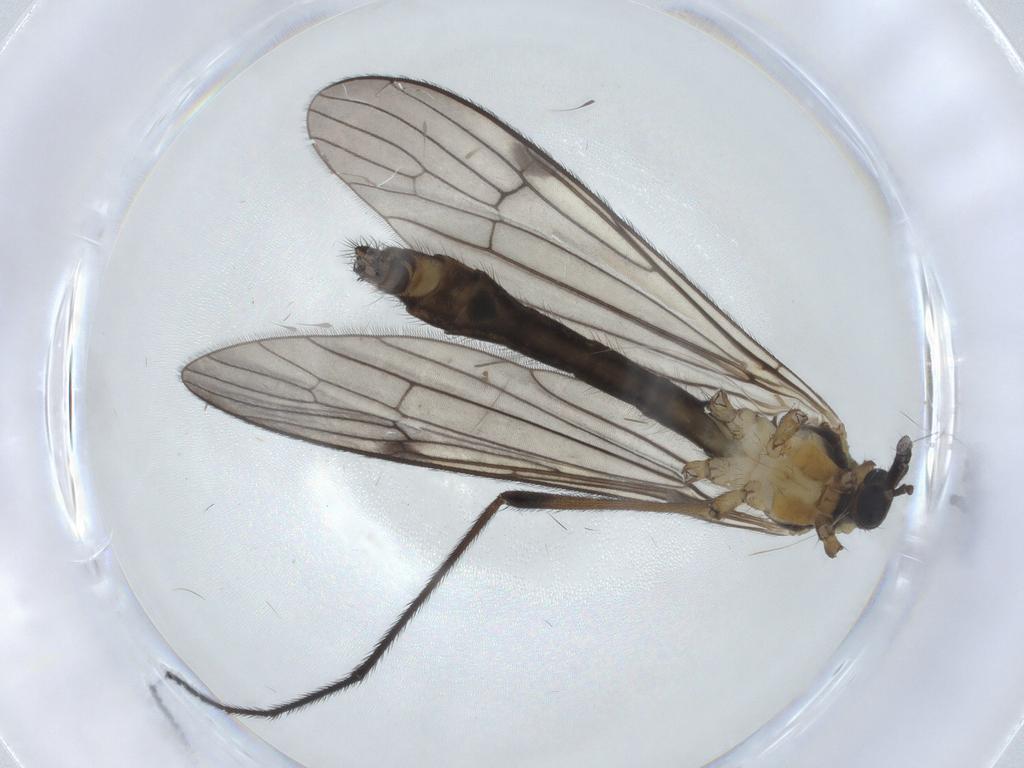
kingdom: Animalia
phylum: Arthropoda
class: Insecta
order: Diptera
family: Limoniidae
